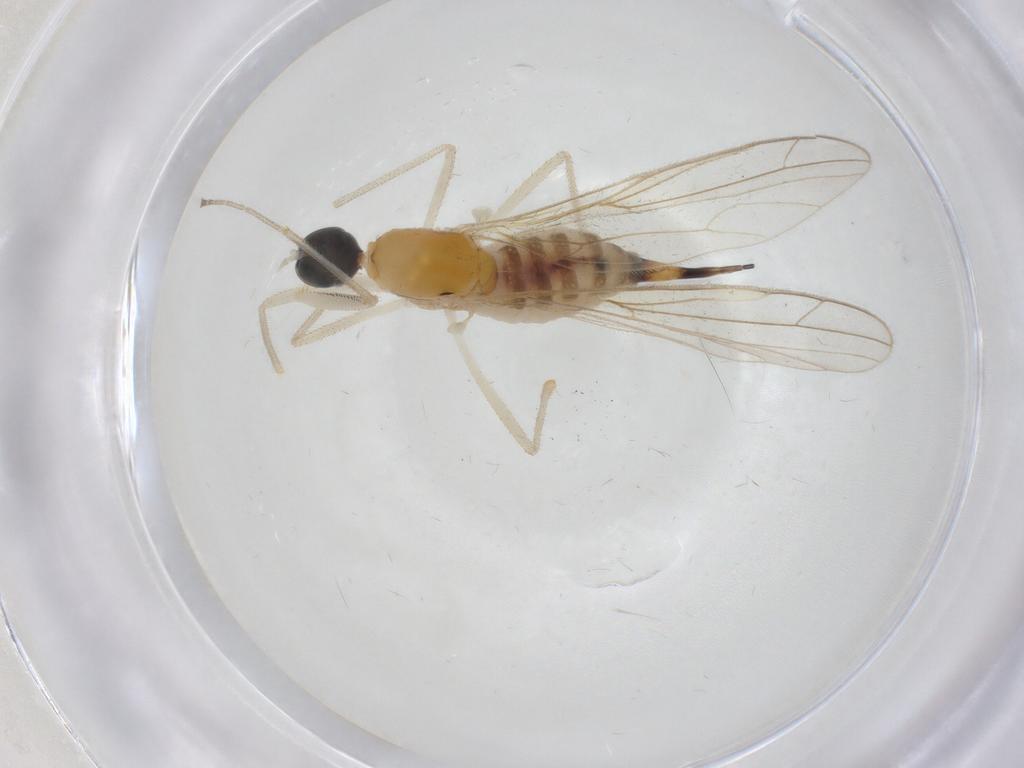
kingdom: Animalia
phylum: Arthropoda
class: Insecta
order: Diptera
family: Empididae
